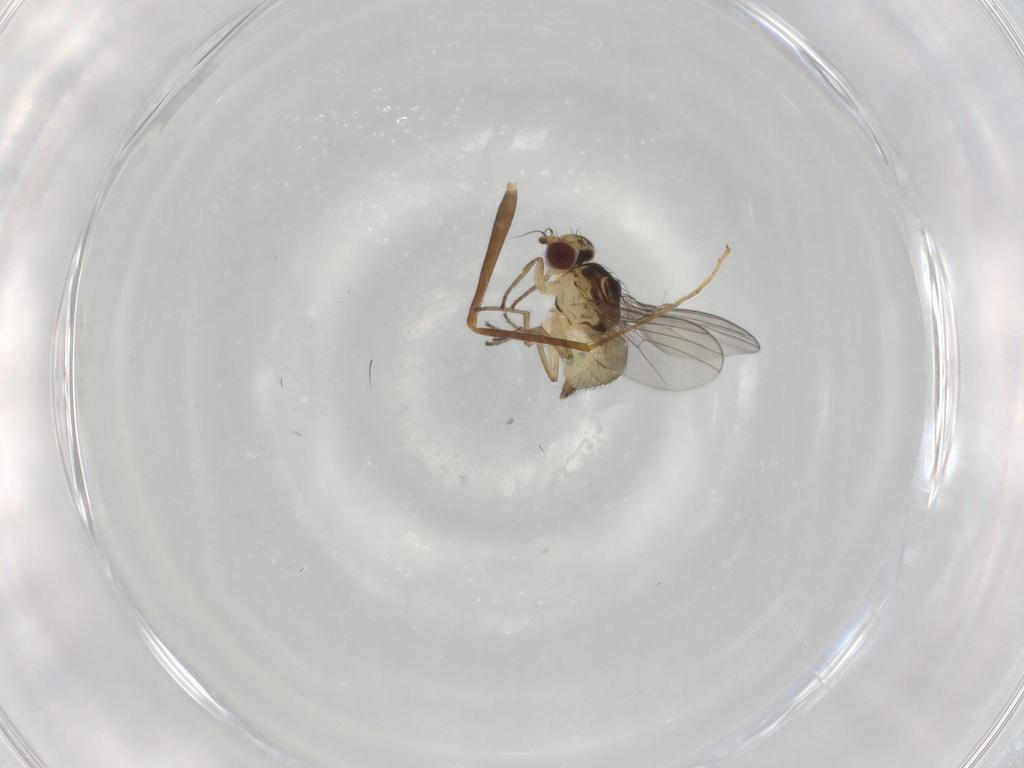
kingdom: Animalia
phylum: Arthropoda
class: Insecta
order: Diptera
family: Agromyzidae
